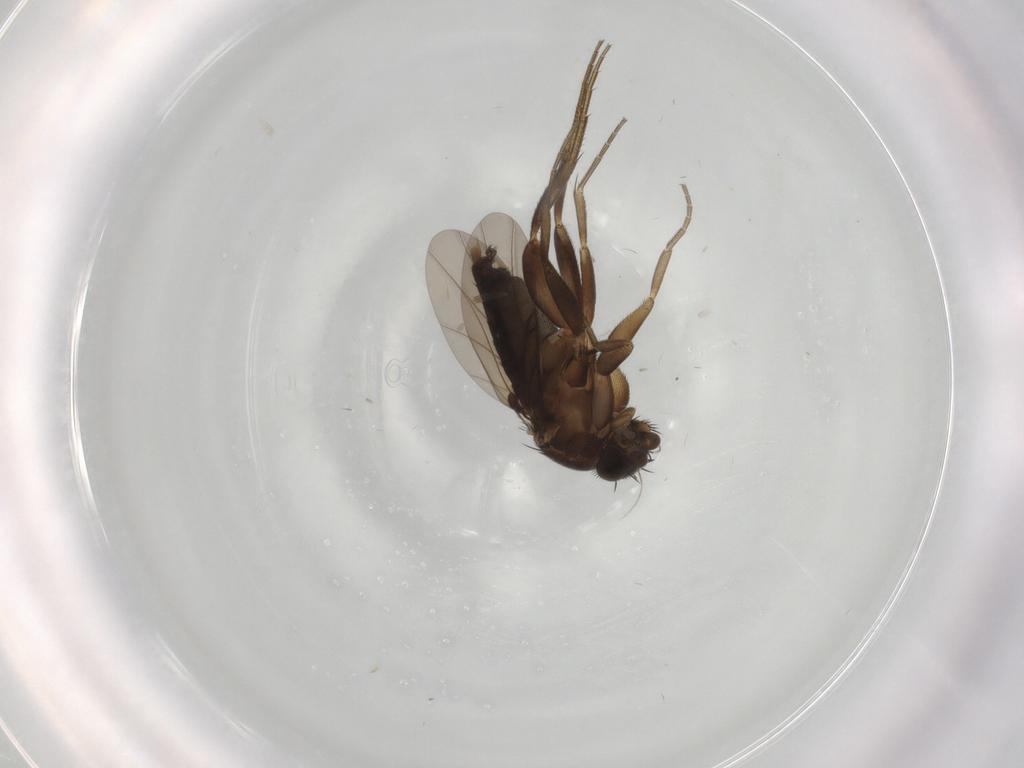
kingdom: Animalia
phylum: Arthropoda
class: Insecta
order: Diptera
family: Phoridae
